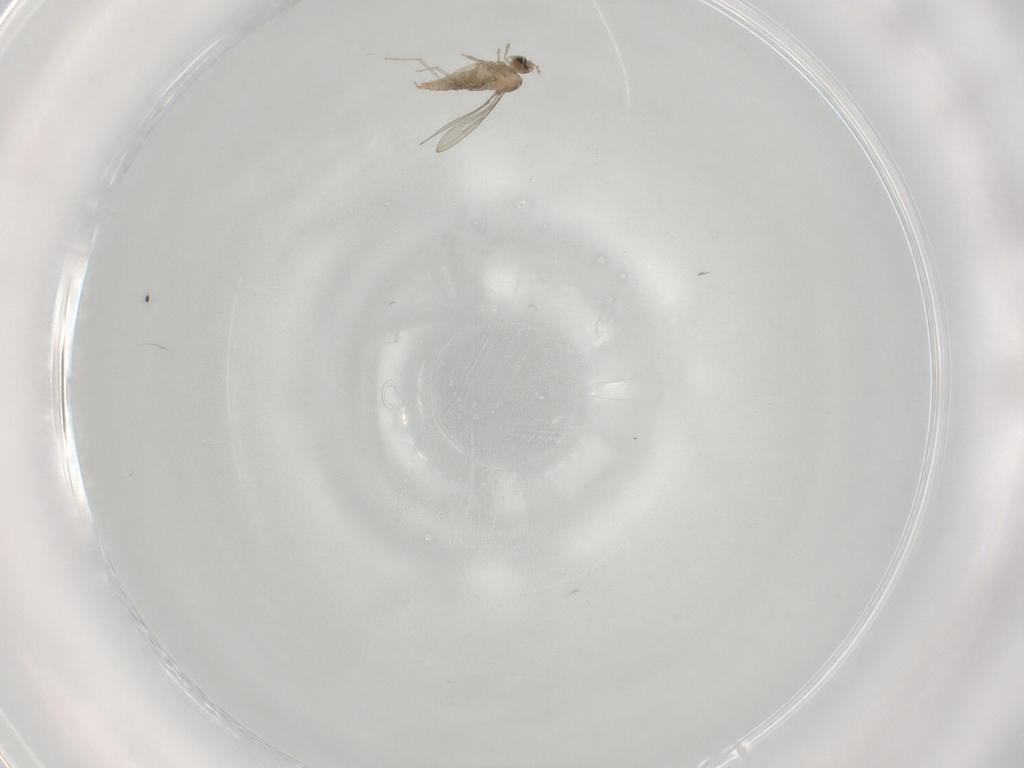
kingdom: Animalia
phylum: Arthropoda
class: Insecta
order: Diptera
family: Cecidomyiidae
